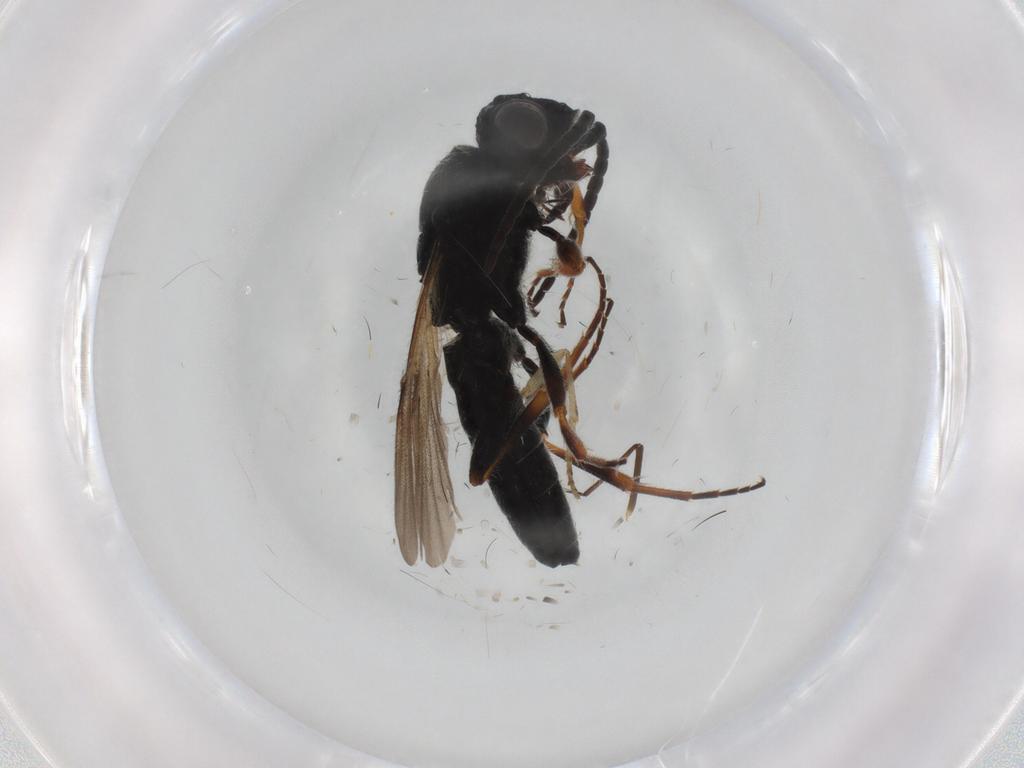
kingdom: Animalia
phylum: Arthropoda
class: Insecta
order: Hymenoptera
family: Scelionidae
